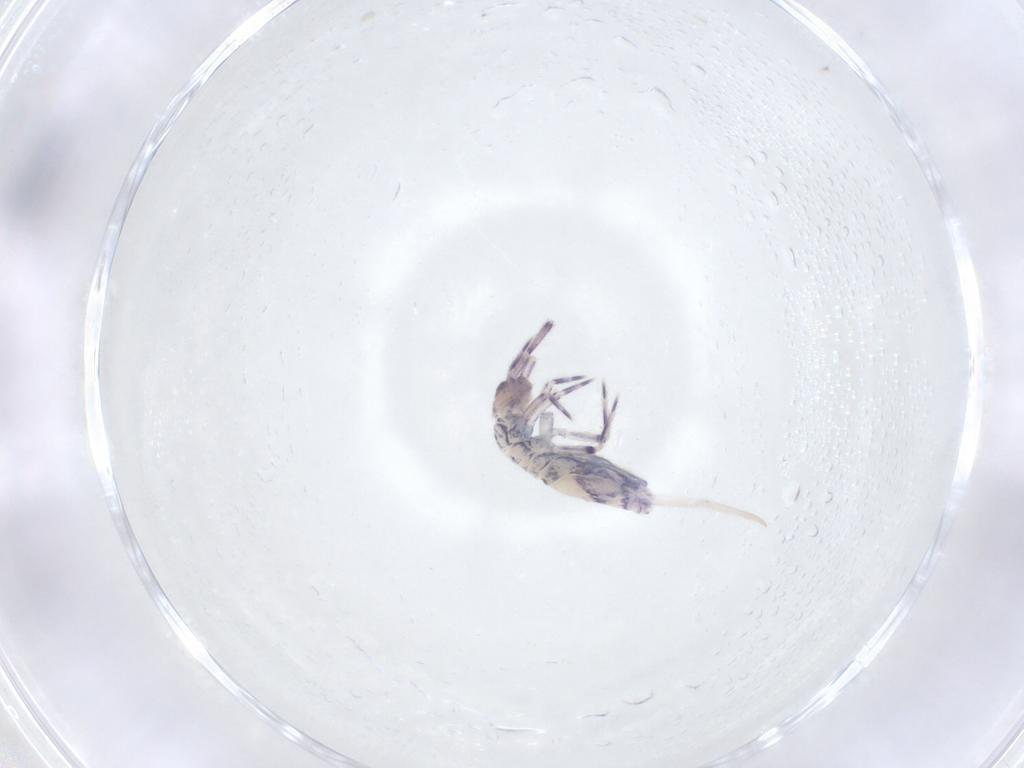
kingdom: Animalia
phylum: Arthropoda
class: Collembola
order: Entomobryomorpha
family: Entomobryidae
